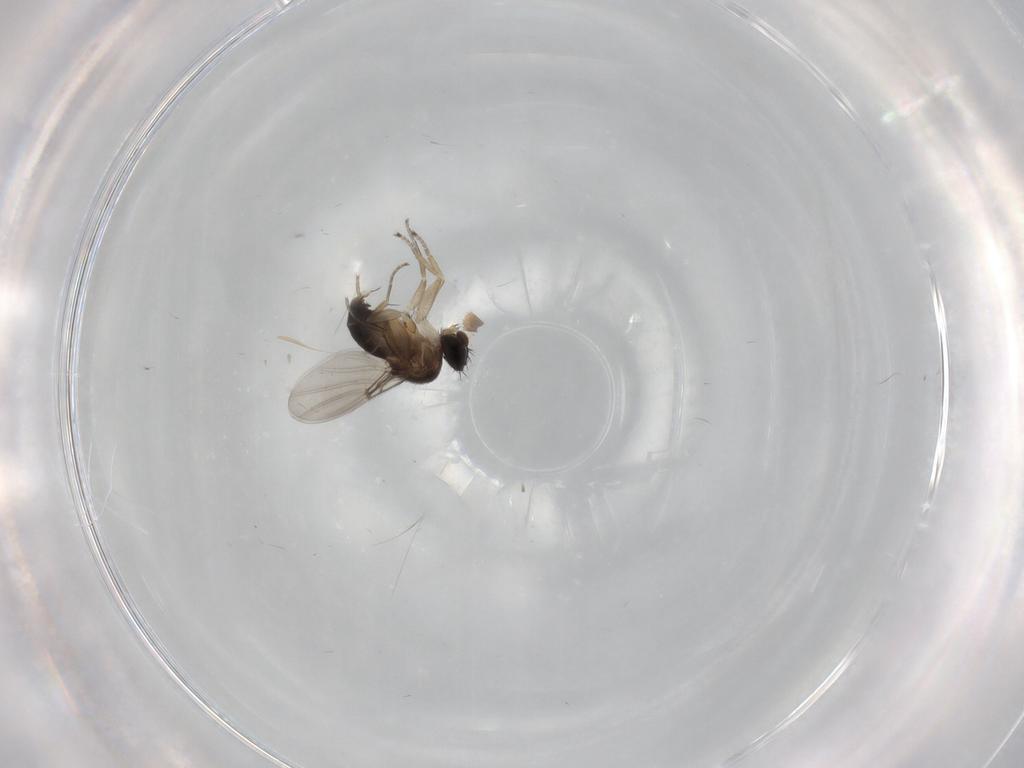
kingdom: Animalia
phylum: Arthropoda
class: Insecta
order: Diptera
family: Phoridae
